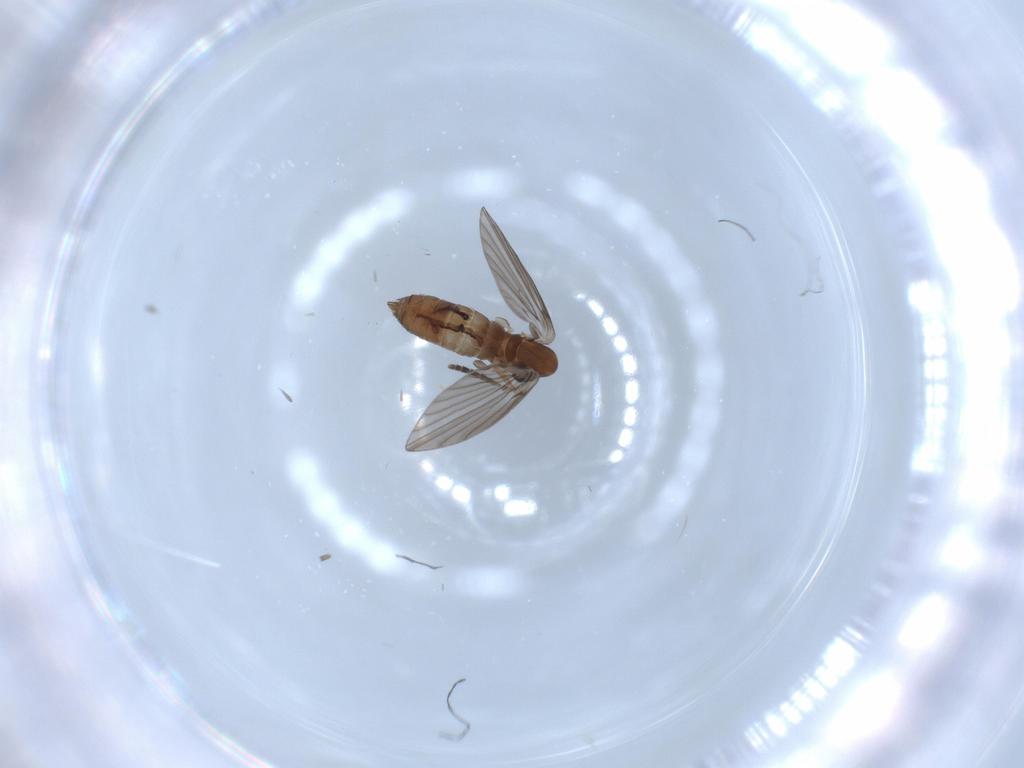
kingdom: Animalia
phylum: Arthropoda
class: Insecta
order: Diptera
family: Psychodidae
